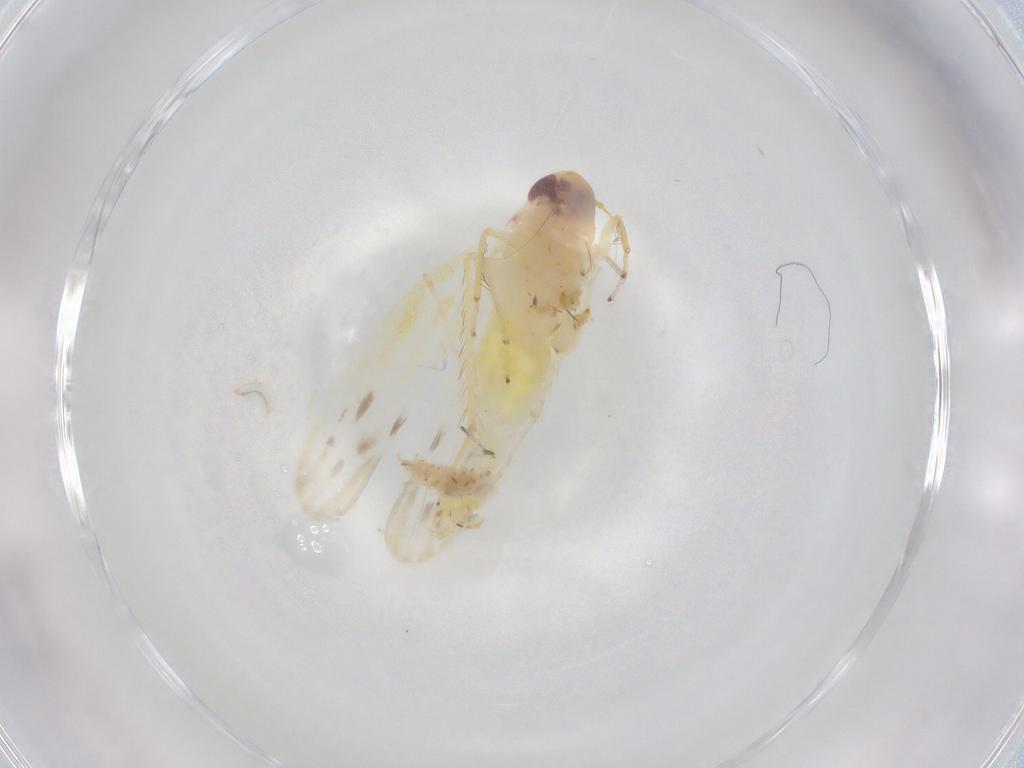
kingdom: Animalia
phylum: Arthropoda
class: Insecta
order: Hemiptera
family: Cicadellidae
